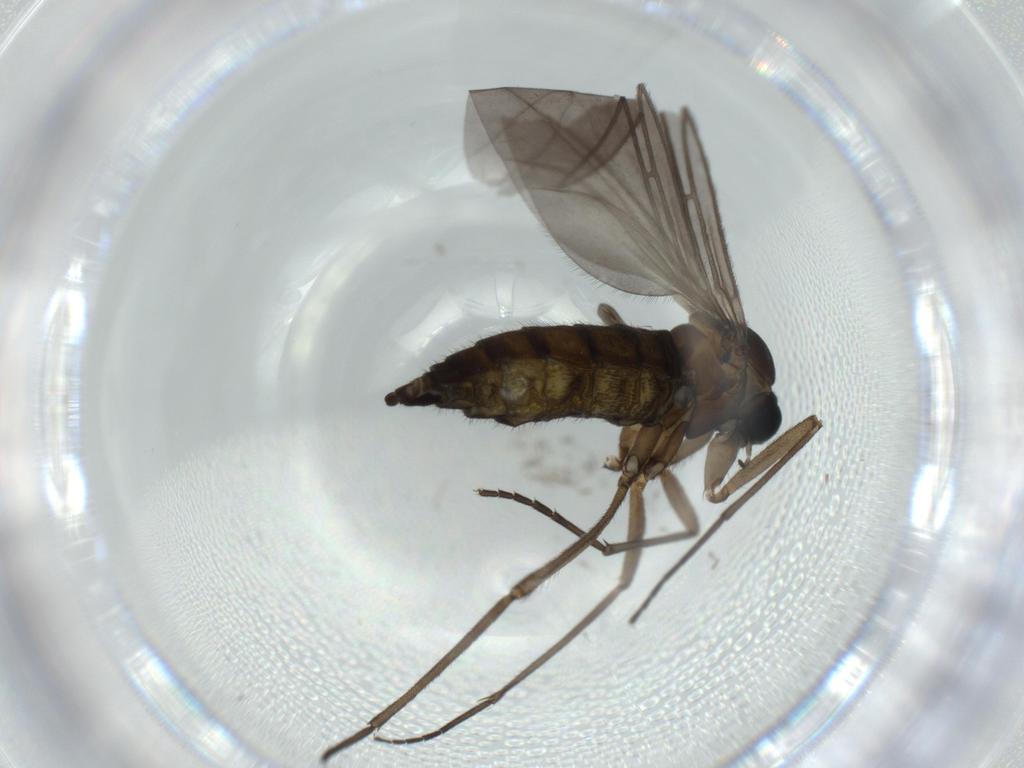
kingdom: Animalia
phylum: Arthropoda
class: Insecta
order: Diptera
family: Sciaridae
